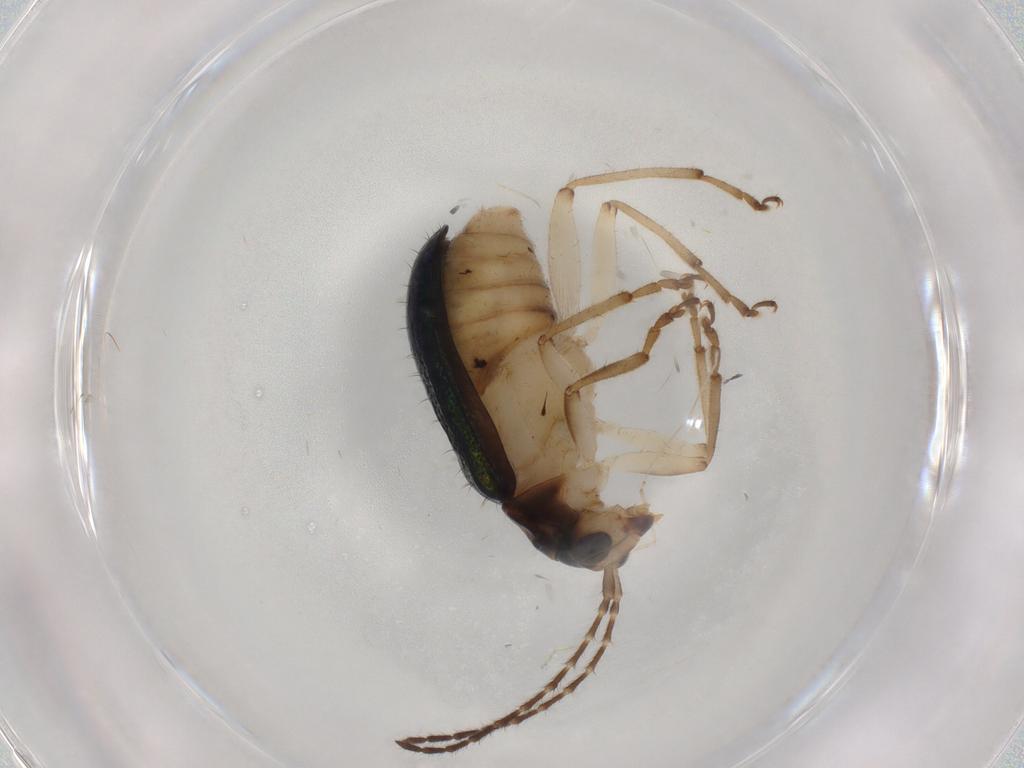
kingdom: Animalia
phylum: Arthropoda
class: Insecta
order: Coleoptera
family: Chrysomelidae
